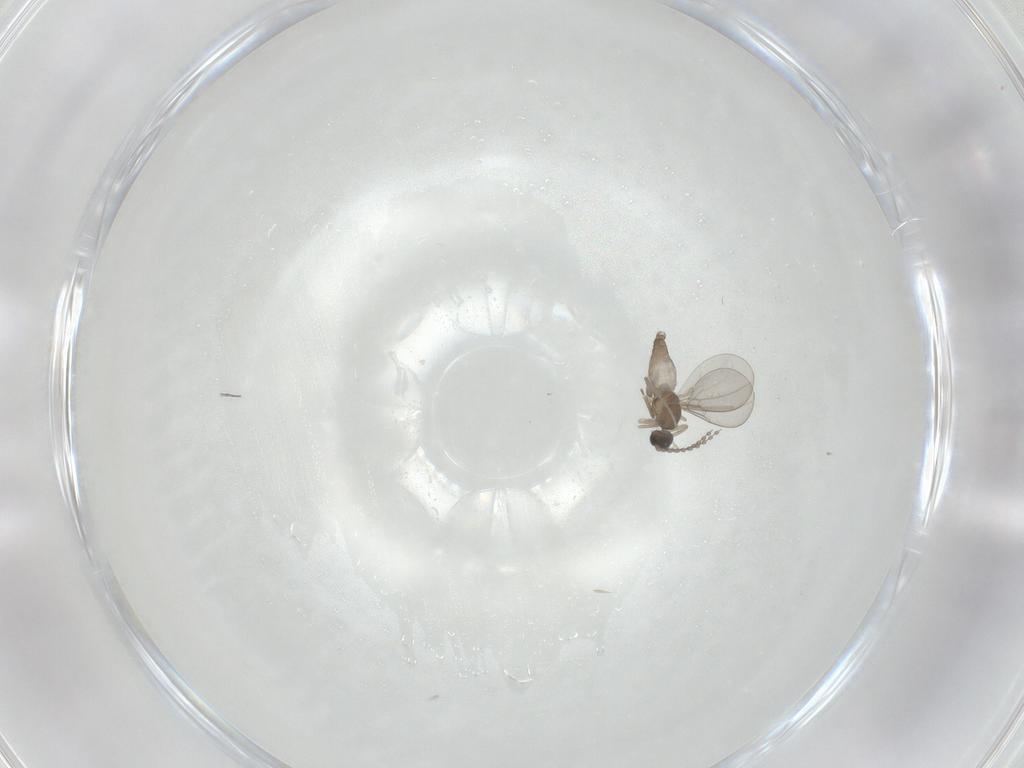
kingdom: Animalia
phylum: Arthropoda
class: Insecta
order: Diptera
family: Cecidomyiidae
